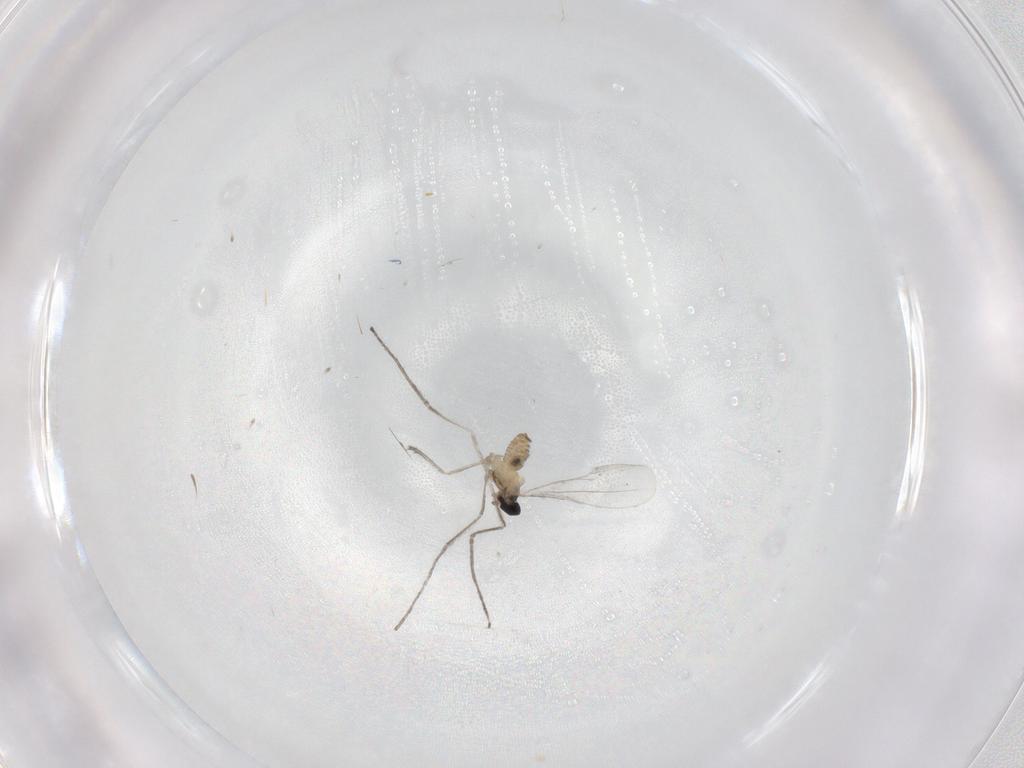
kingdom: Animalia
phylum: Arthropoda
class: Insecta
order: Diptera
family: Cecidomyiidae
